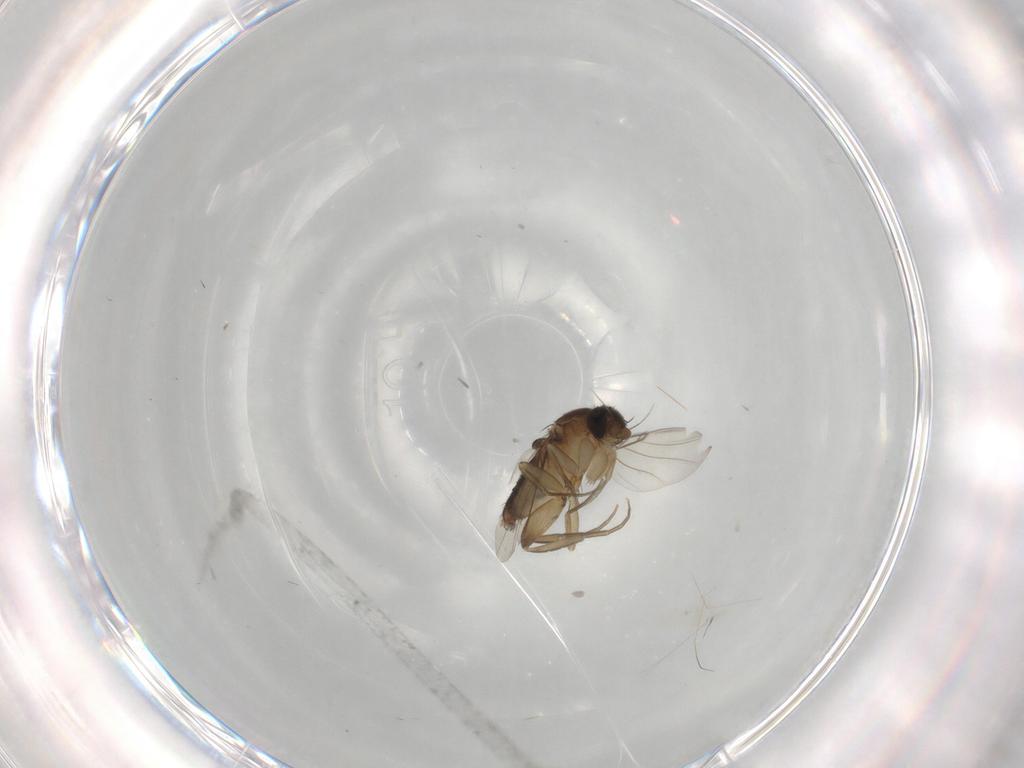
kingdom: Animalia
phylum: Arthropoda
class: Insecta
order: Diptera
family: Phoridae
